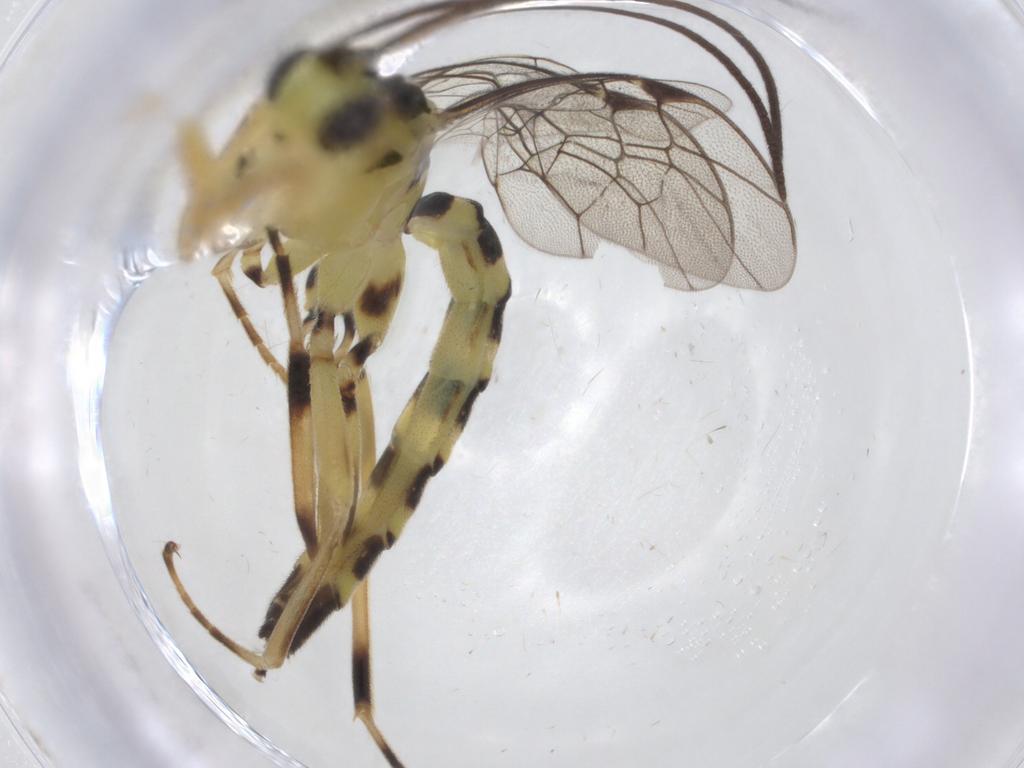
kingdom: Animalia
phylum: Arthropoda
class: Insecta
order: Hymenoptera
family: Ichneumonidae
